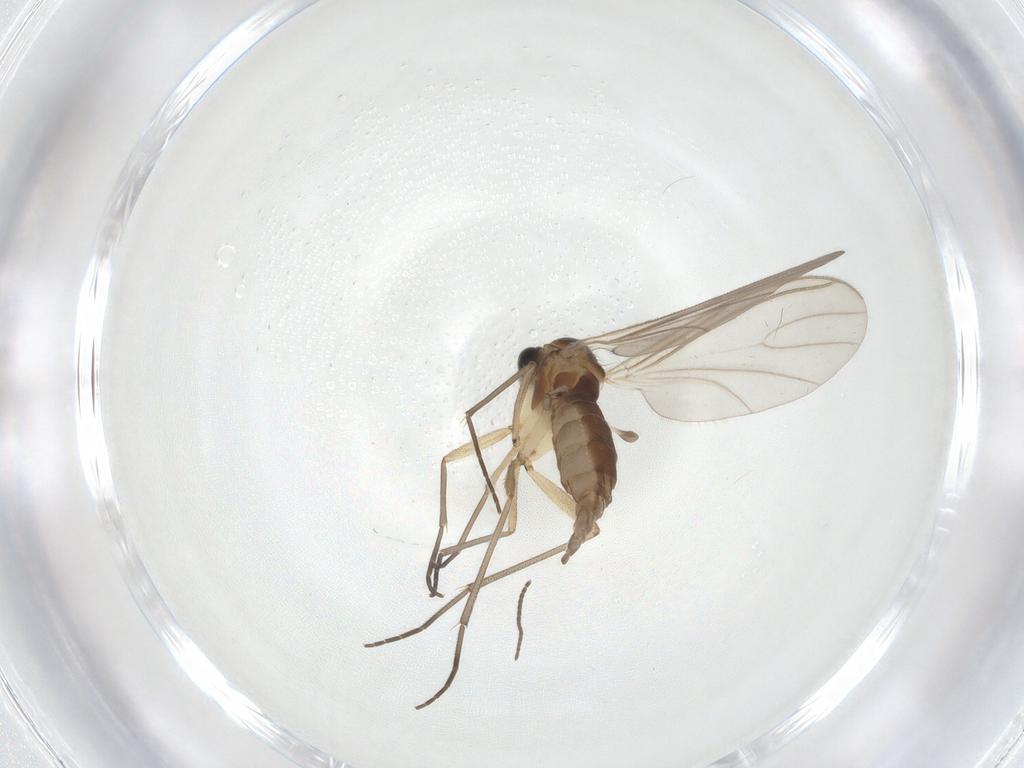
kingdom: Animalia
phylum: Arthropoda
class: Insecta
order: Diptera
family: Sciaridae
